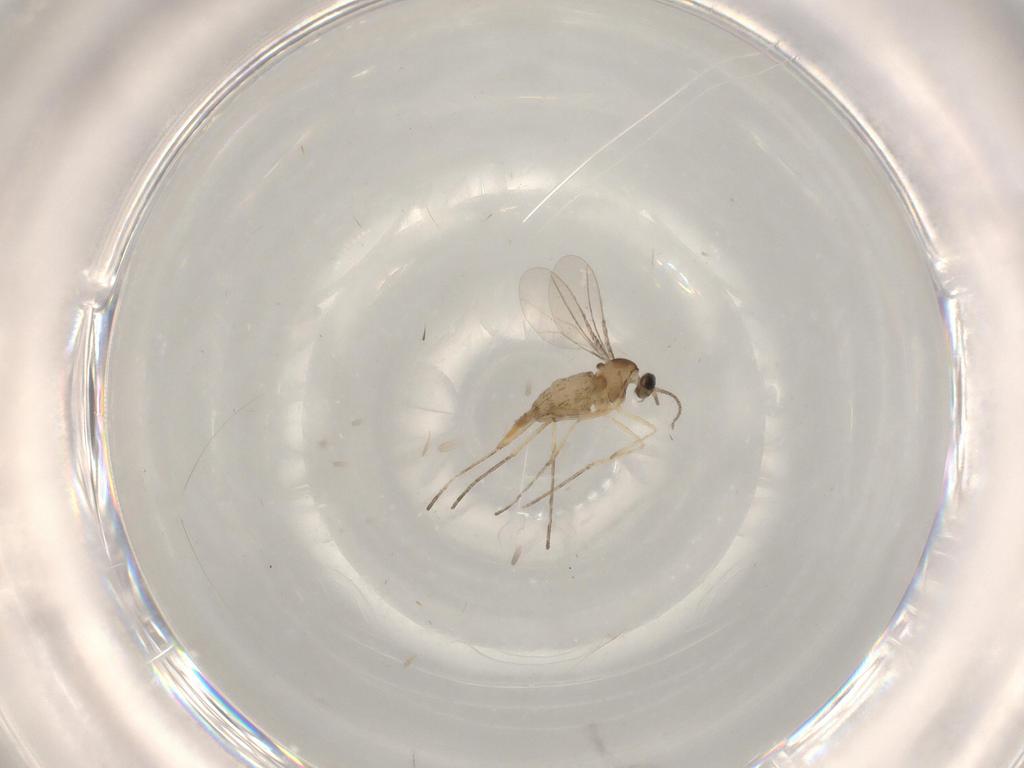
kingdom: Animalia
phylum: Arthropoda
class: Insecta
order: Diptera
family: Cecidomyiidae
